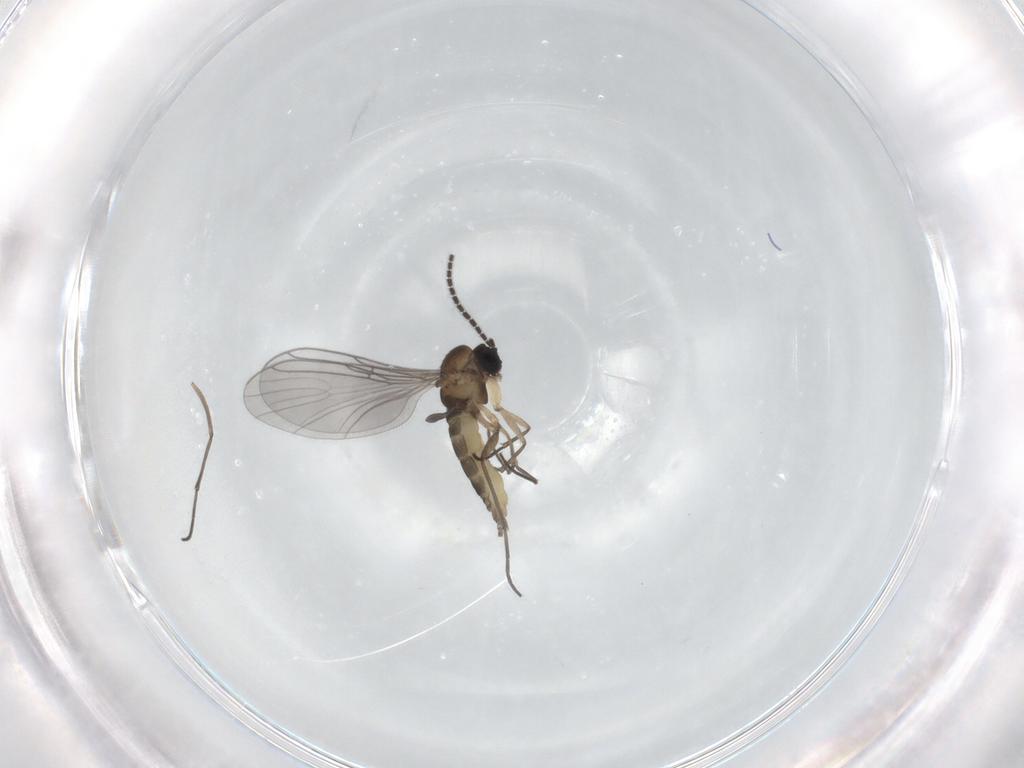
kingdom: Animalia
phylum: Arthropoda
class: Insecta
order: Diptera
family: Sciaridae
